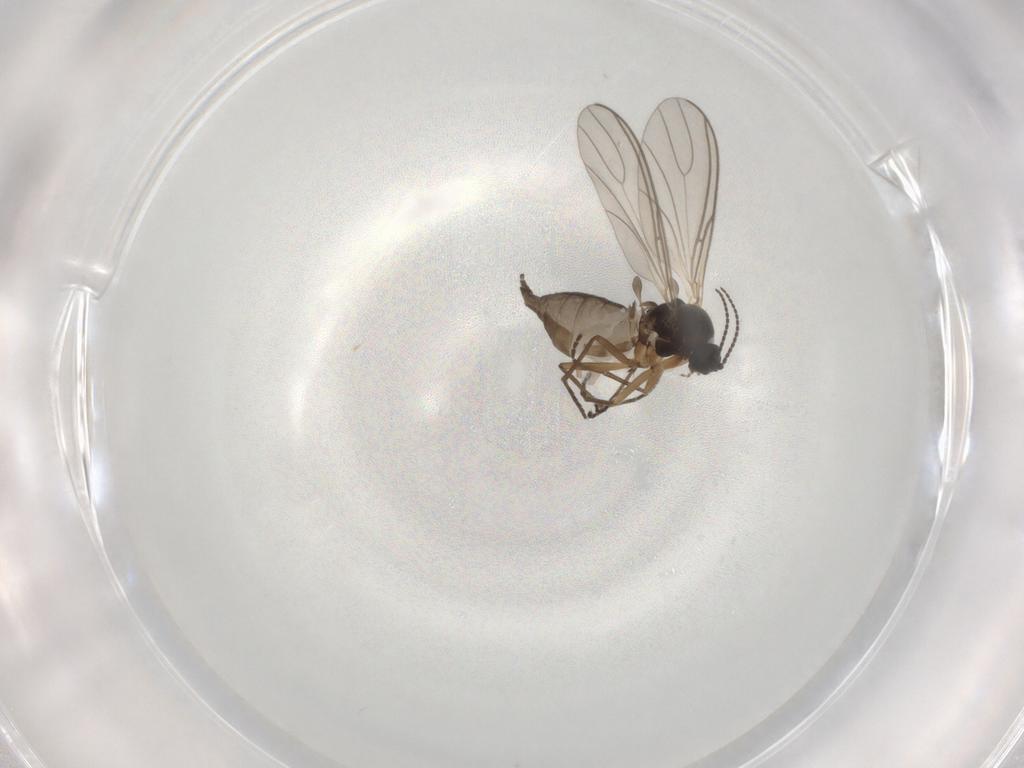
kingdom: Animalia
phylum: Arthropoda
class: Insecta
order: Diptera
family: Sciaridae
